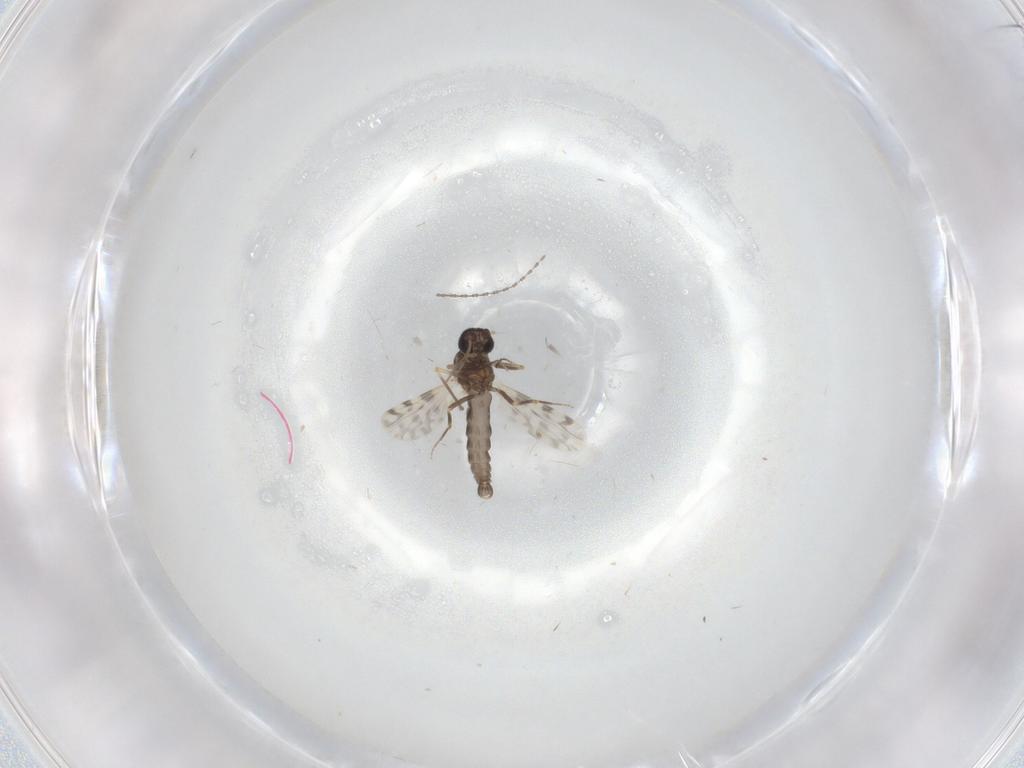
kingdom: Animalia
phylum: Arthropoda
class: Insecta
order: Diptera
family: Ceratopogonidae
